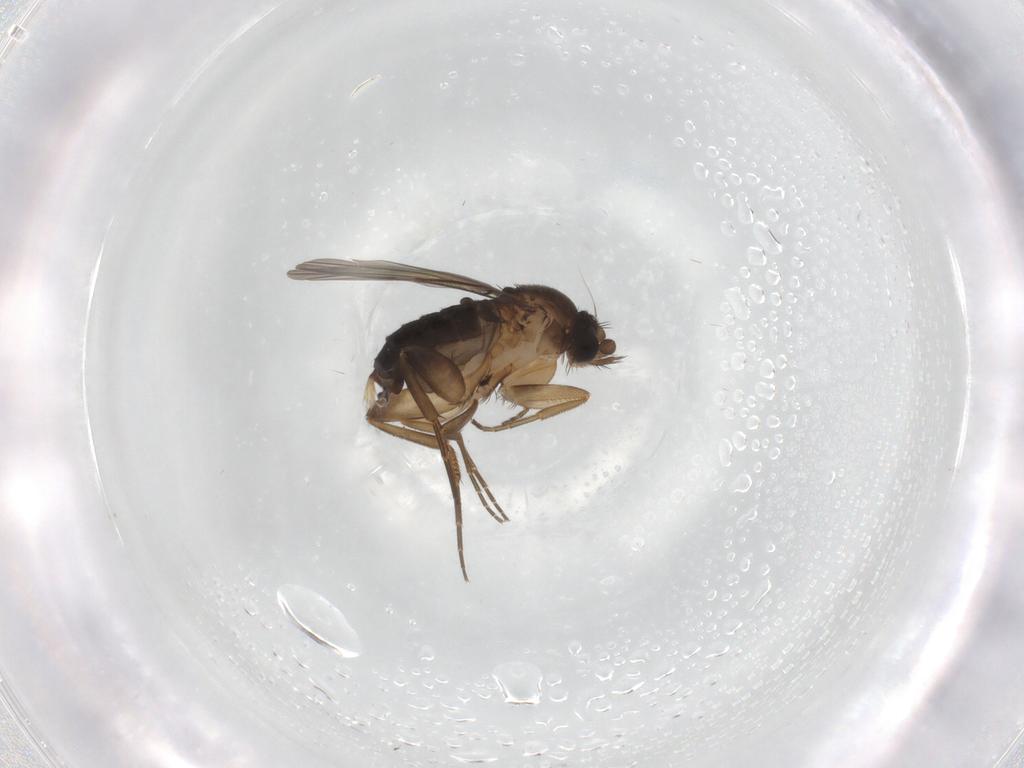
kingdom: Animalia
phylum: Arthropoda
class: Insecta
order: Diptera
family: Phoridae
